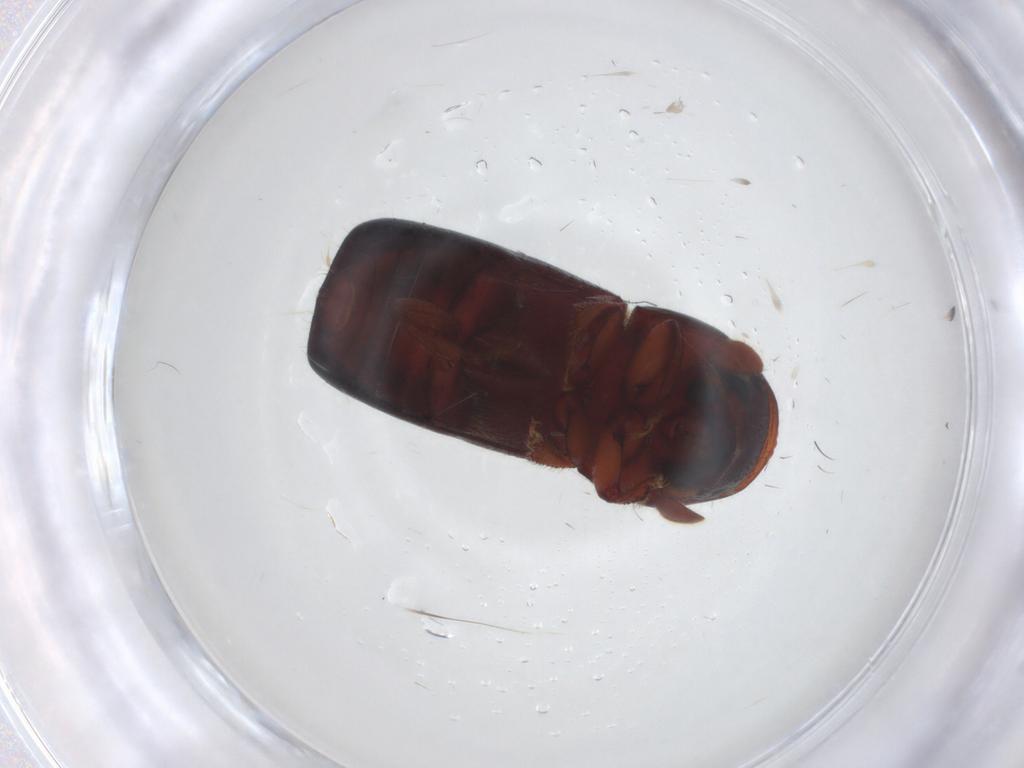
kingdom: Animalia
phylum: Arthropoda
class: Insecta
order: Coleoptera
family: Curculionidae
